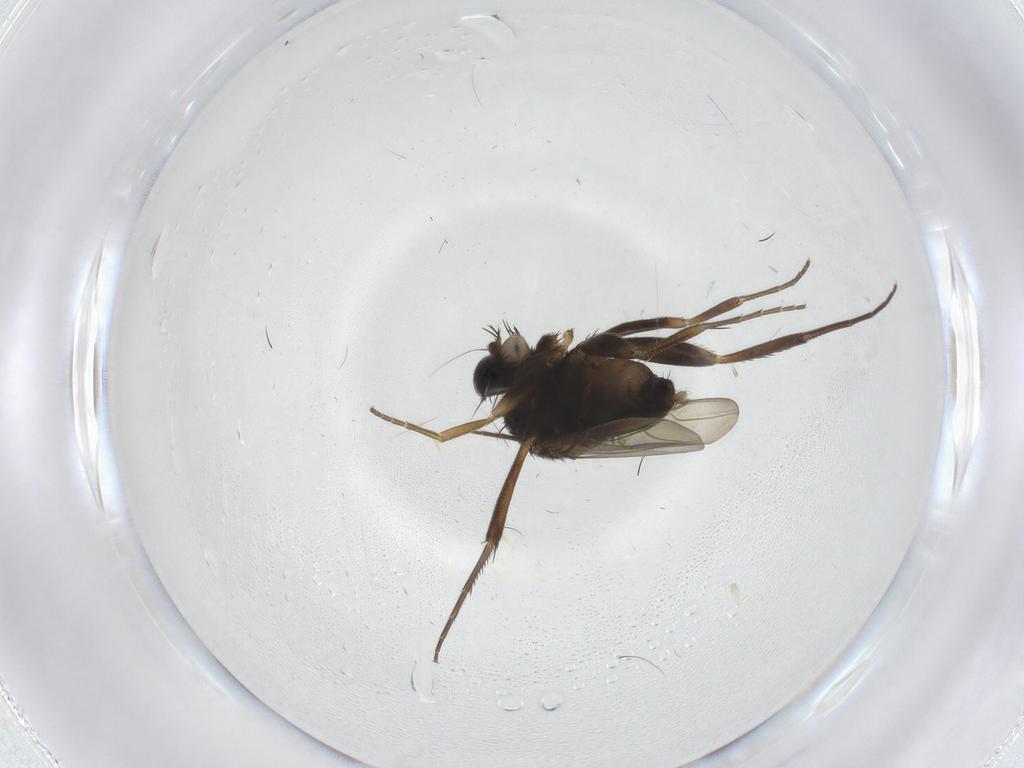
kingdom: Animalia
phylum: Arthropoda
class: Insecta
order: Diptera
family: Phoridae
